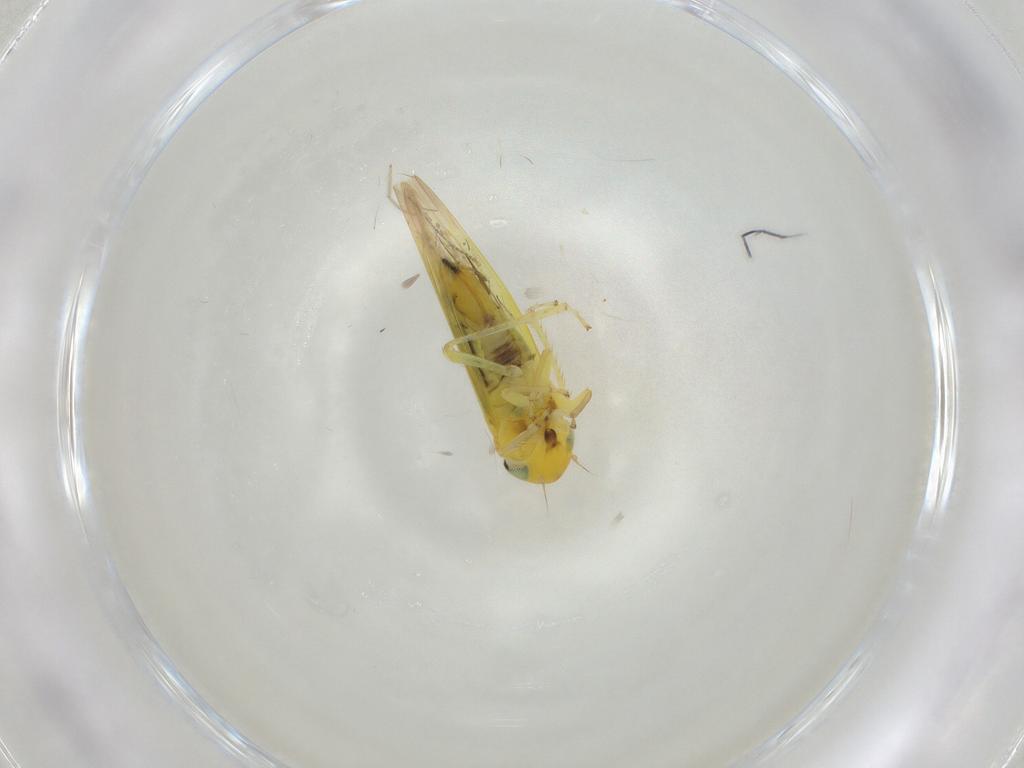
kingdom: Animalia
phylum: Arthropoda
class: Insecta
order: Hemiptera
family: Cicadellidae
